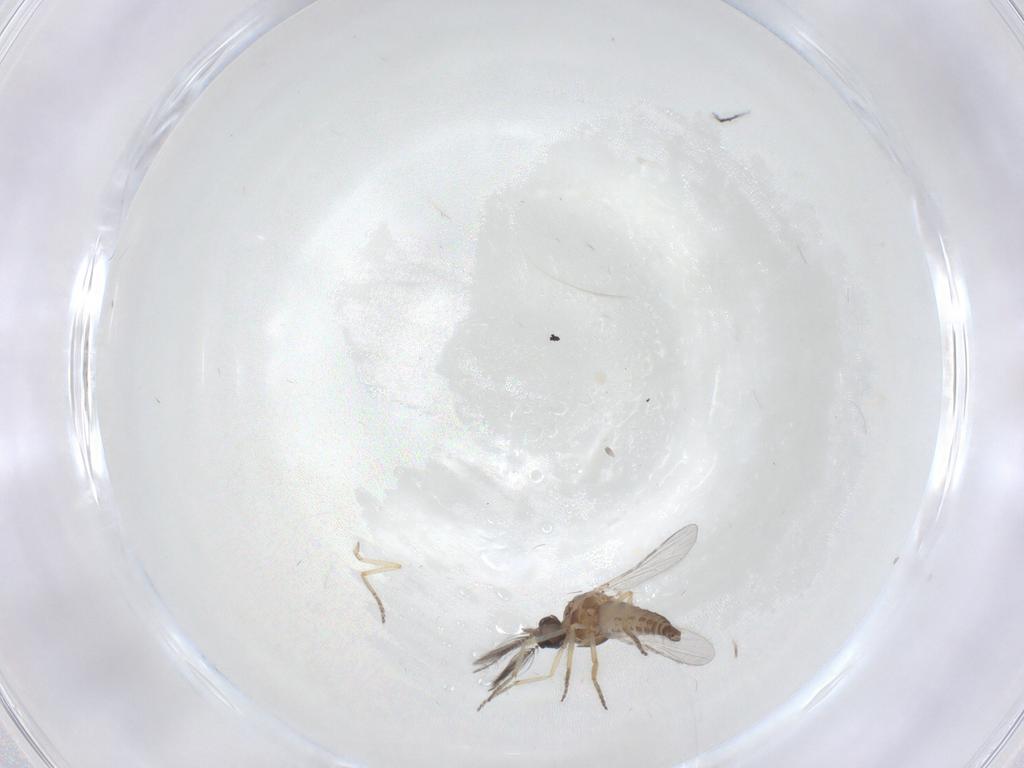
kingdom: Animalia
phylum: Arthropoda
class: Insecta
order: Diptera
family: Ceratopogonidae
